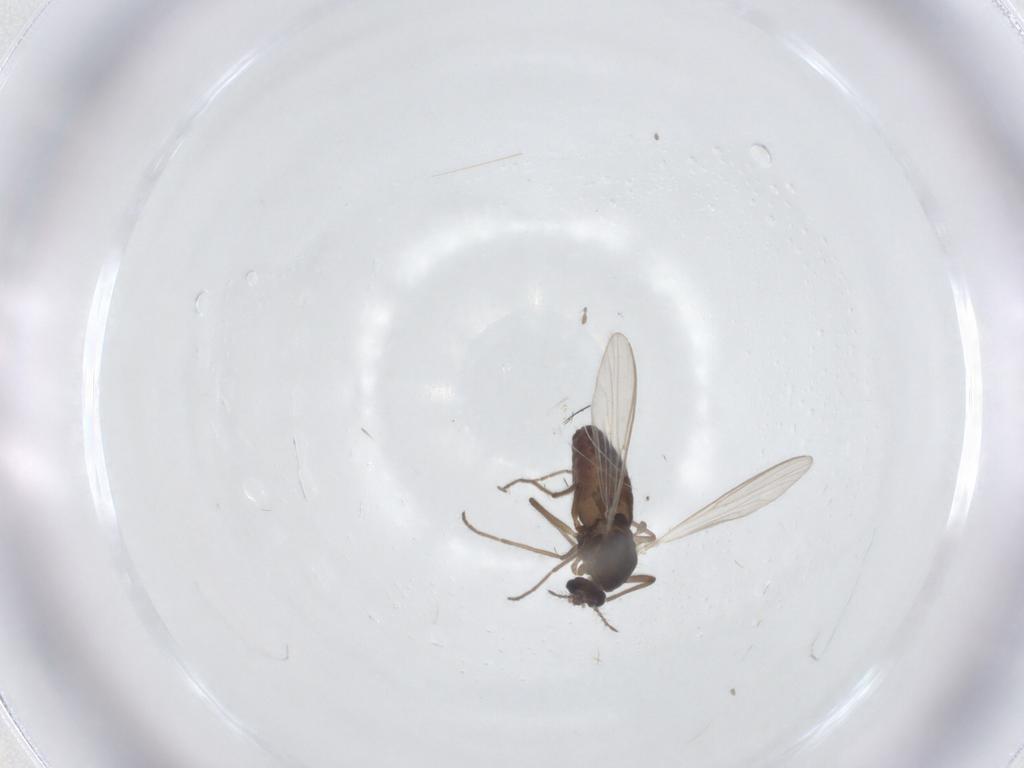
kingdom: Animalia
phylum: Arthropoda
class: Insecta
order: Diptera
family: Chironomidae
